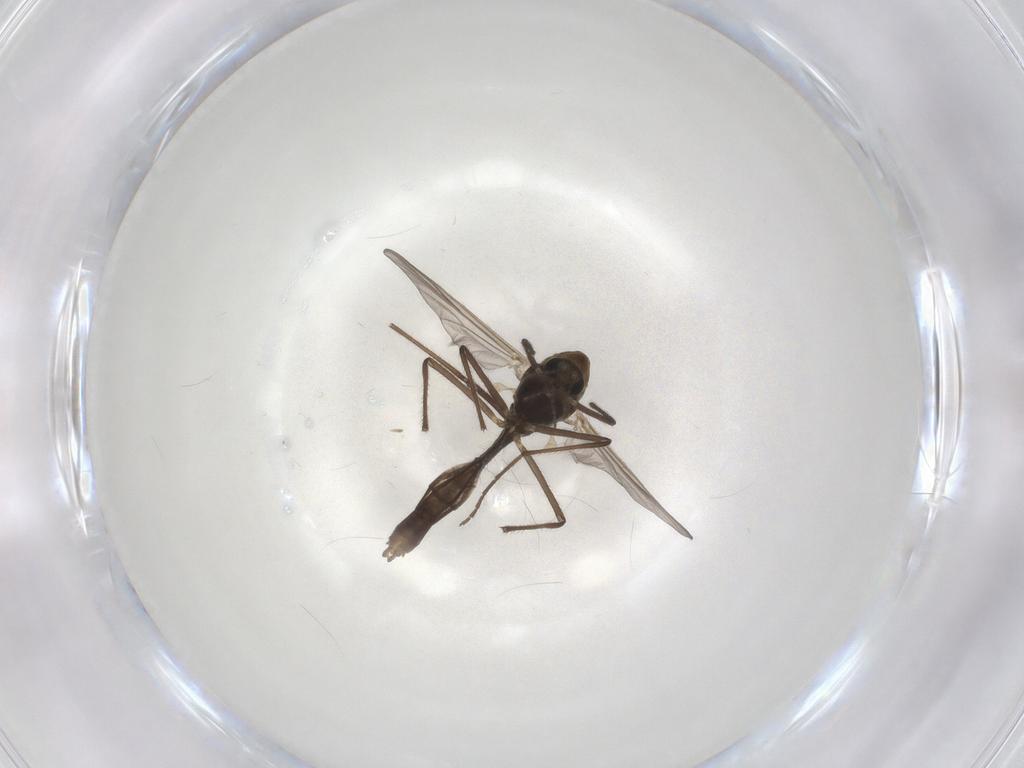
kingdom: Animalia
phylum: Arthropoda
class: Insecta
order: Diptera
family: Chironomidae
